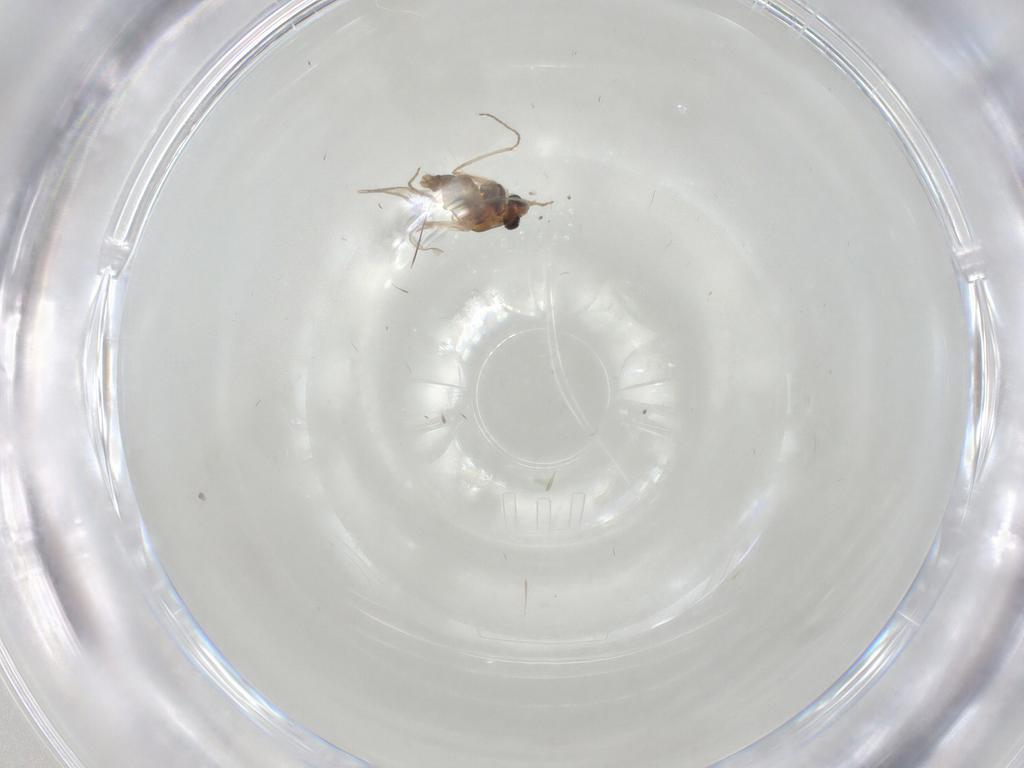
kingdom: Animalia
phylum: Arthropoda
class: Insecta
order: Diptera
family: Chironomidae
